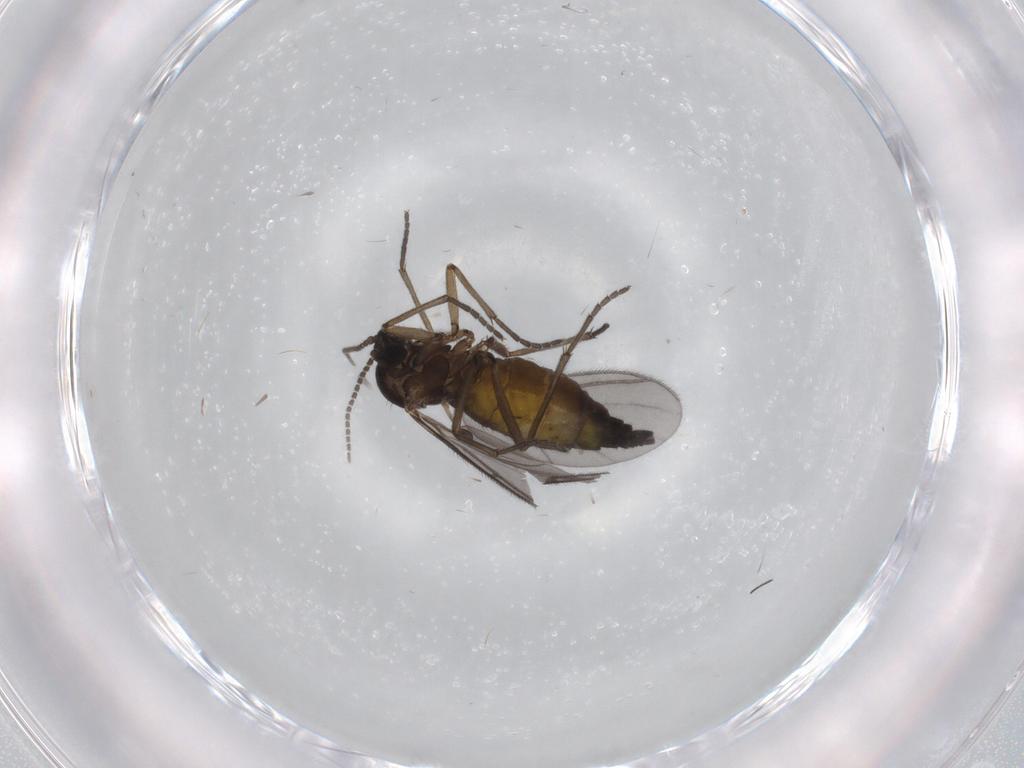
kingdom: Animalia
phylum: Arthropoda
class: Insecta
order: Diptera
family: Sciaridae
